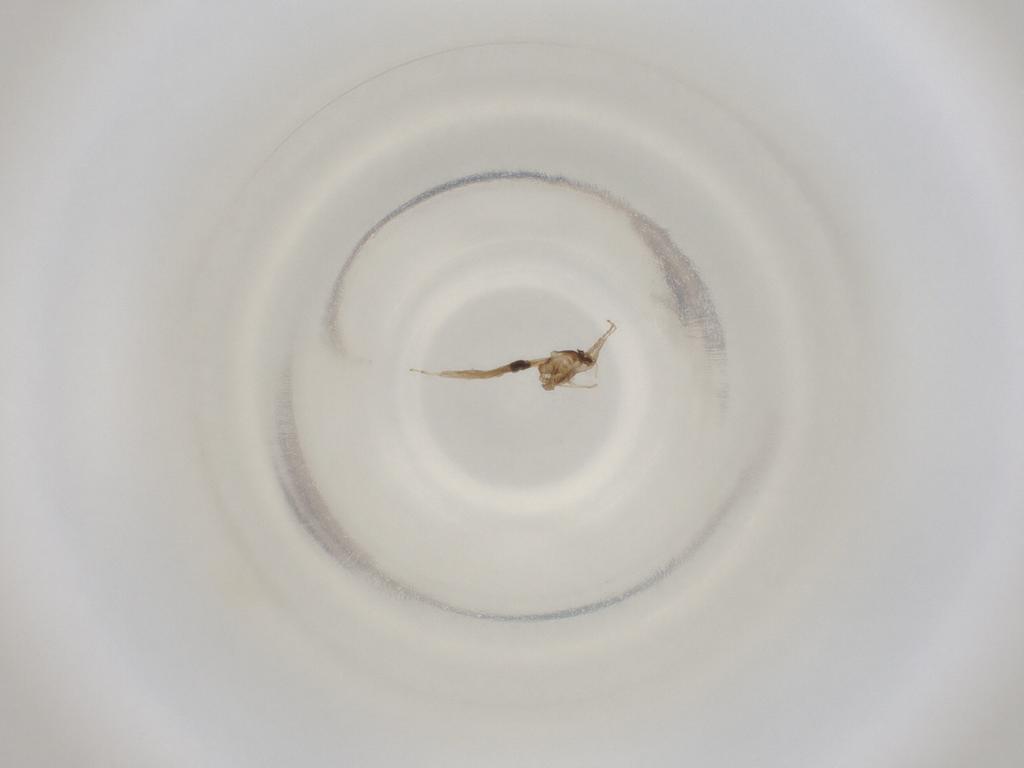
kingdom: Animalia
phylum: Arthropoda
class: Insecta
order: Diptera
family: Cecidomyiidae
